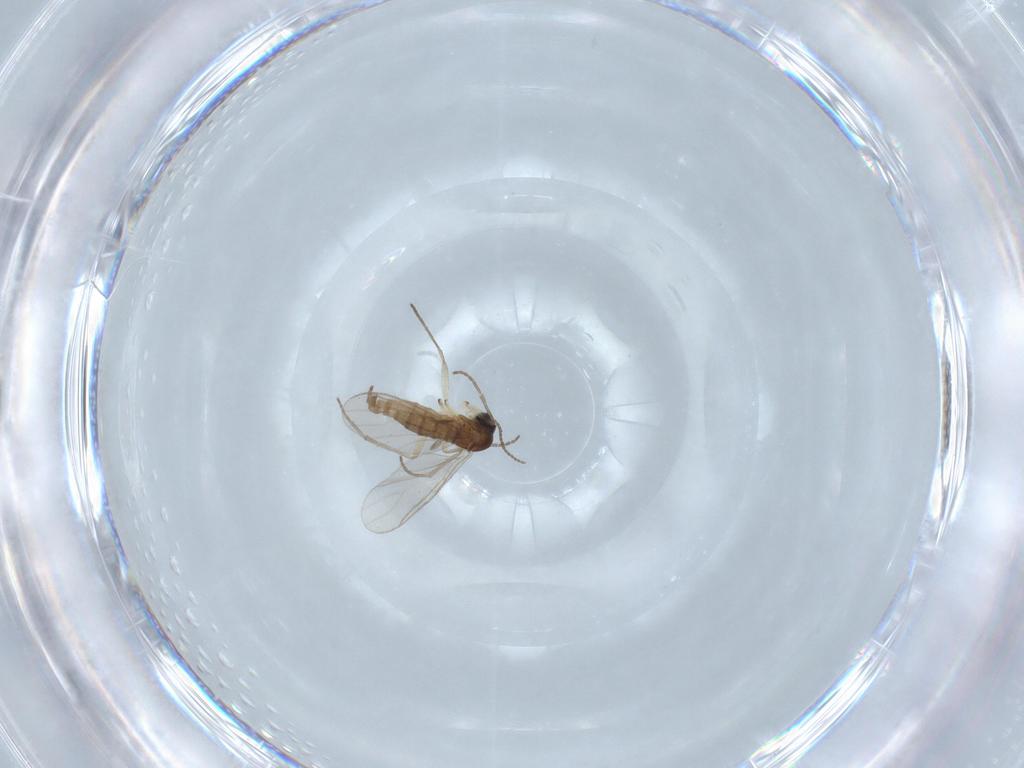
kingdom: Animalia
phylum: Arthropoda
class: Insecta
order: Diptera
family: Sciaridae
